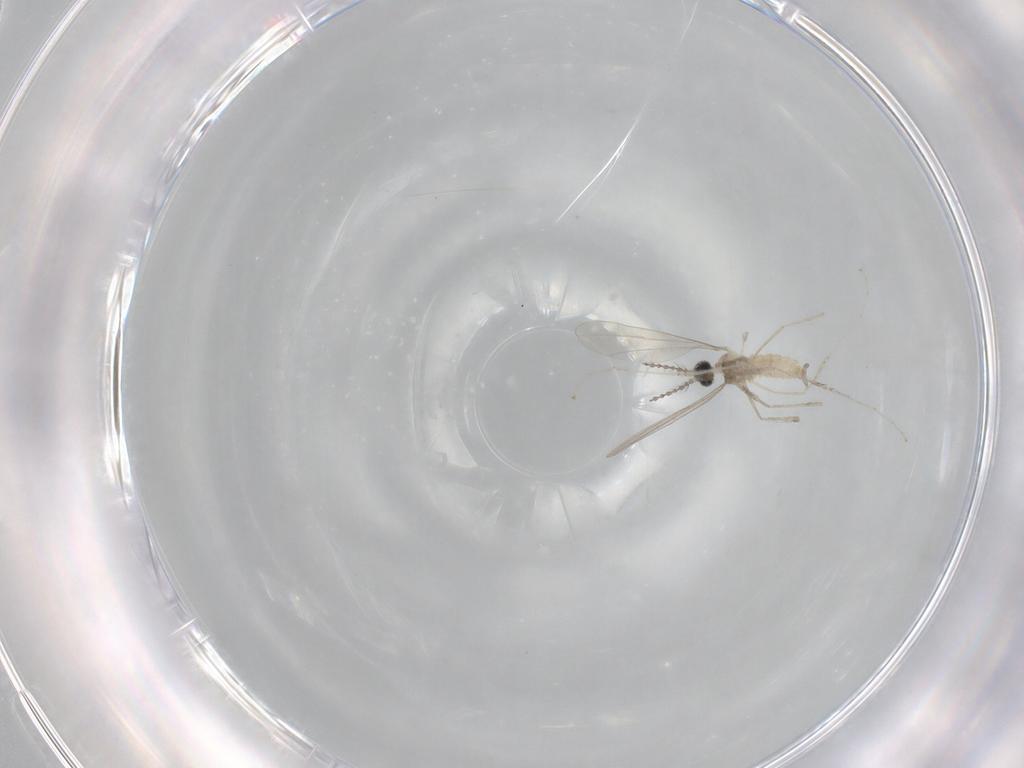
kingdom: Animalia
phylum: Arthropoda
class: Insecta
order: Diptera
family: Cecidomyiidae
